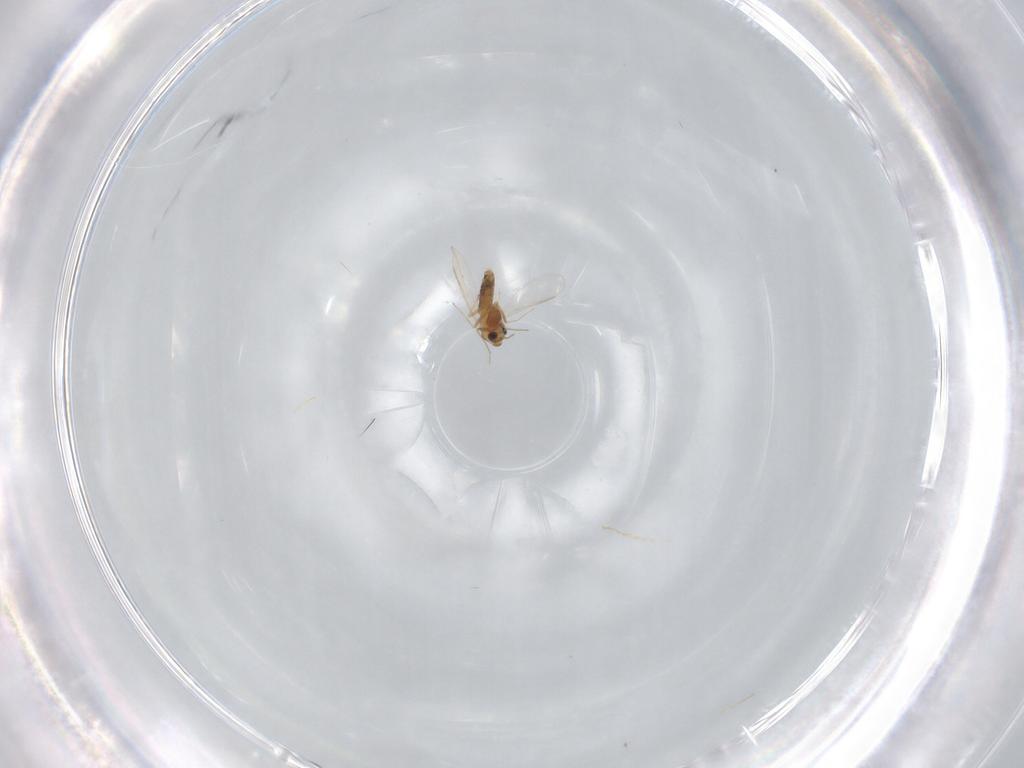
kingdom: Animalia
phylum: Arthropoda
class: Insecta
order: Diptera
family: Chironomidae
